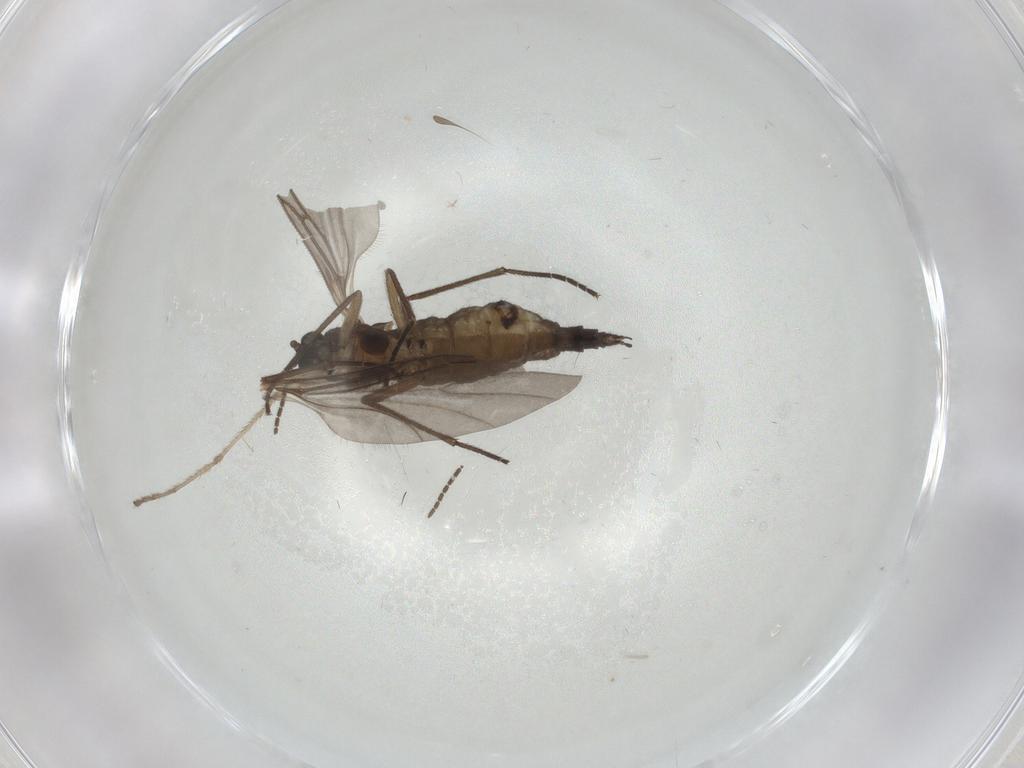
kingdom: Animalia
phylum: Arthropoda
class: Insecta
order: Diptera
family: Sciaridae
